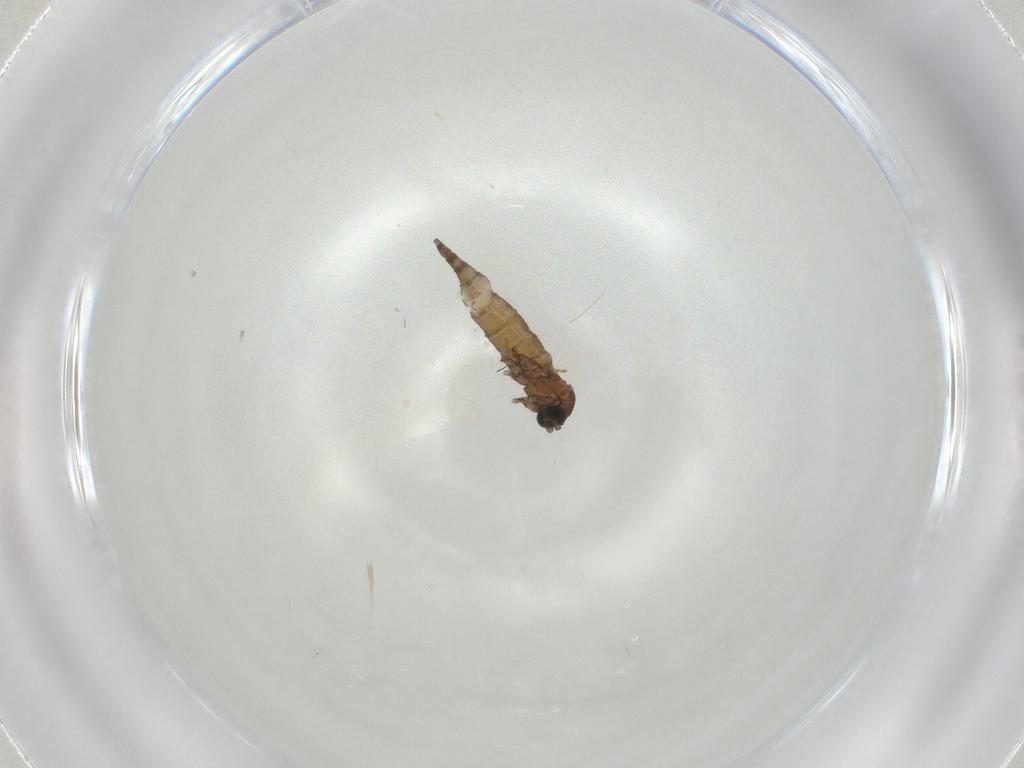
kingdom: Animalia
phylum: Arthropoda
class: Insecta
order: Diptera
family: Sciaridae
